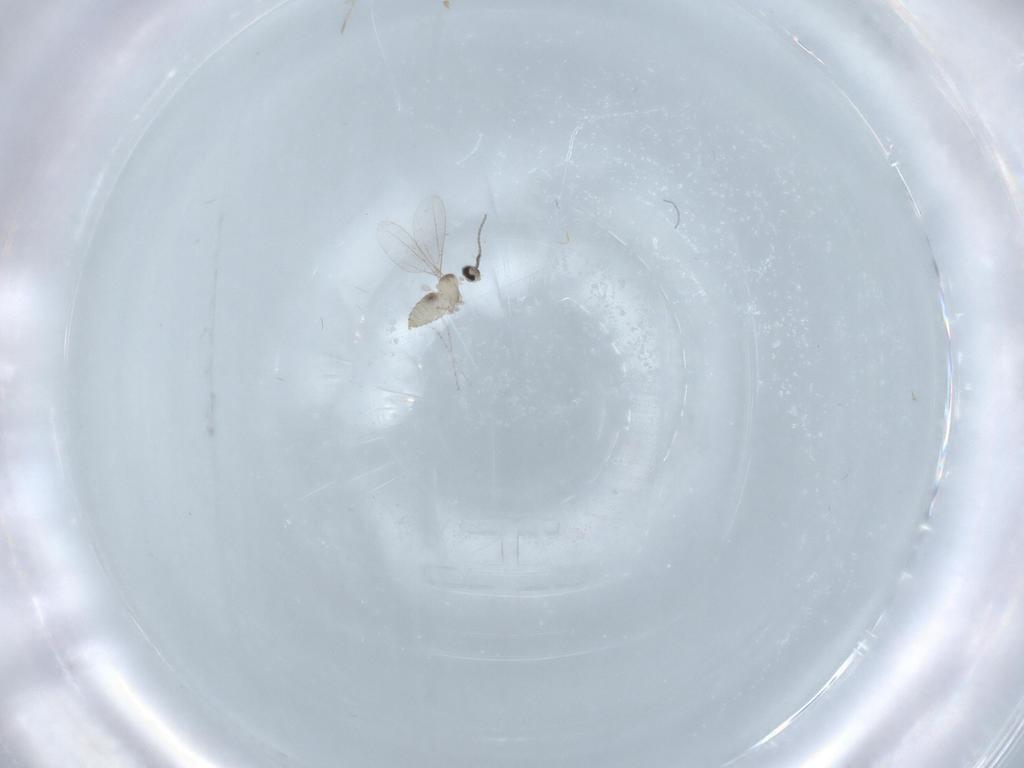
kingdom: Animalia
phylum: Arthropoda
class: Insecta
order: Diptera
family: Cecidomyiidae
